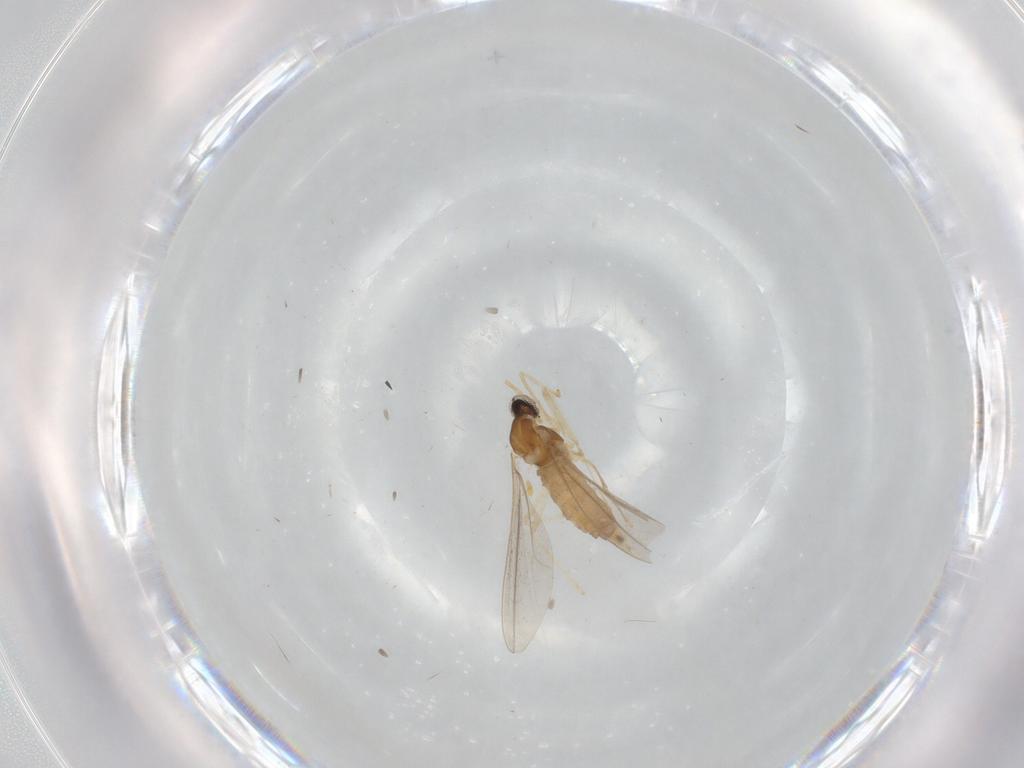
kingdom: Animalia
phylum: Arthropoda
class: Insecta
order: Diptera
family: Cecidomyiidae
